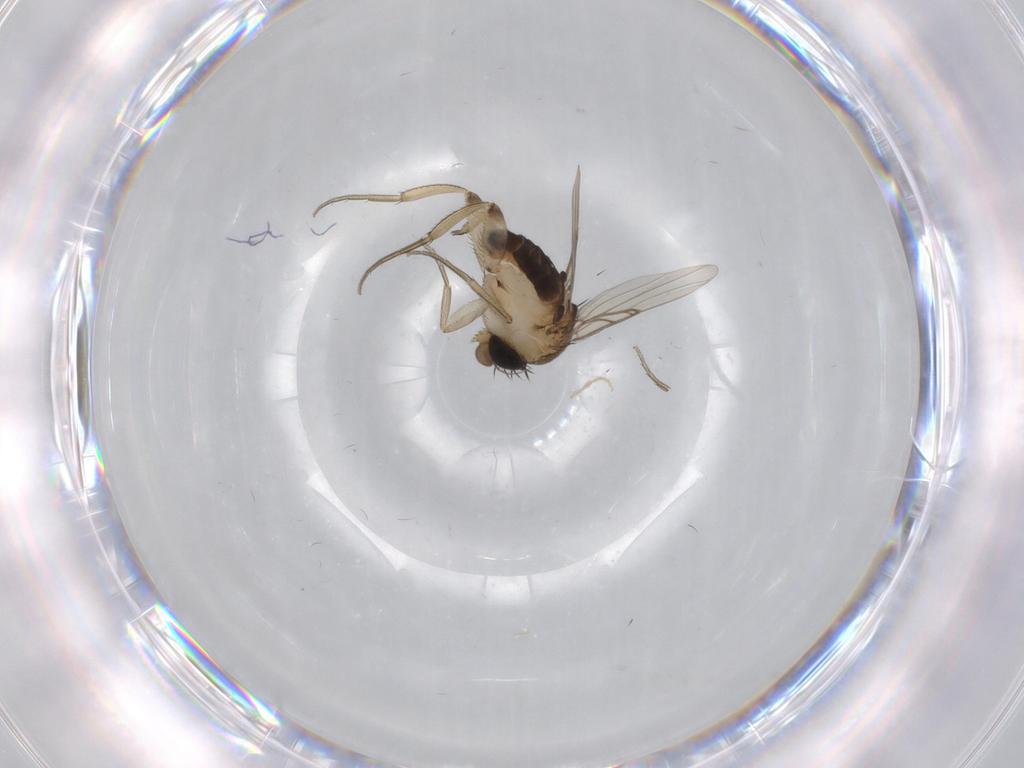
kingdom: Animalia
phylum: Arthropoda
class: Insecta
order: Diptera
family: Phoridae
